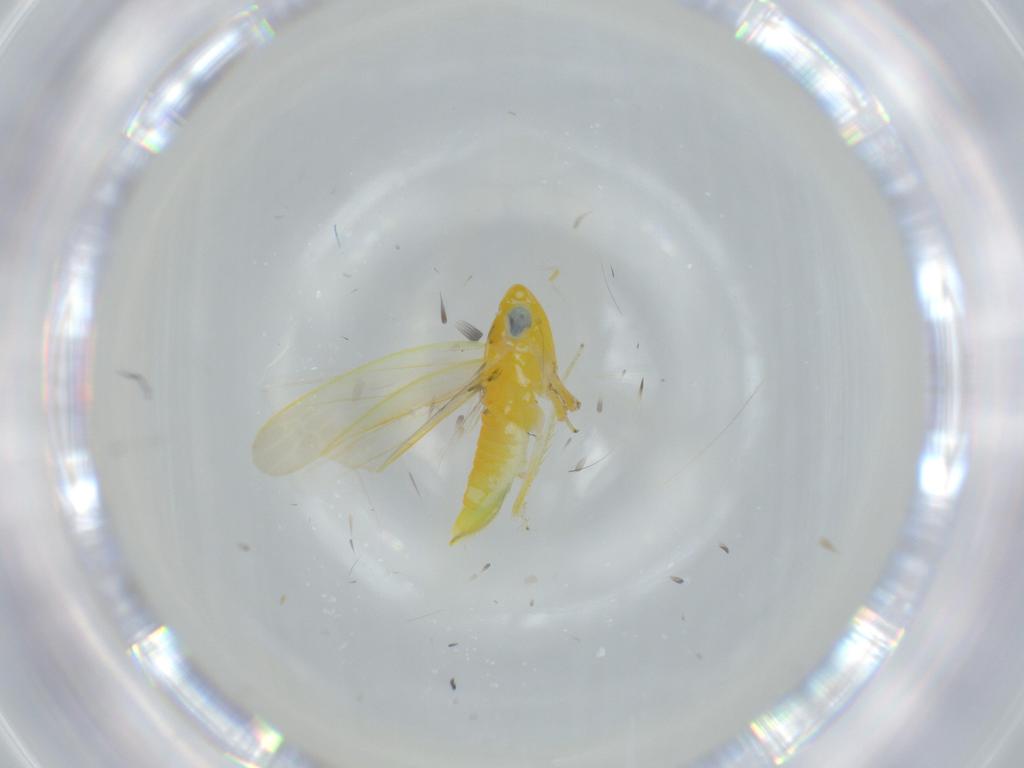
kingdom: Animalia
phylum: Arthropoda
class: Insecta
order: Hemiptera
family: Cicadellidae
